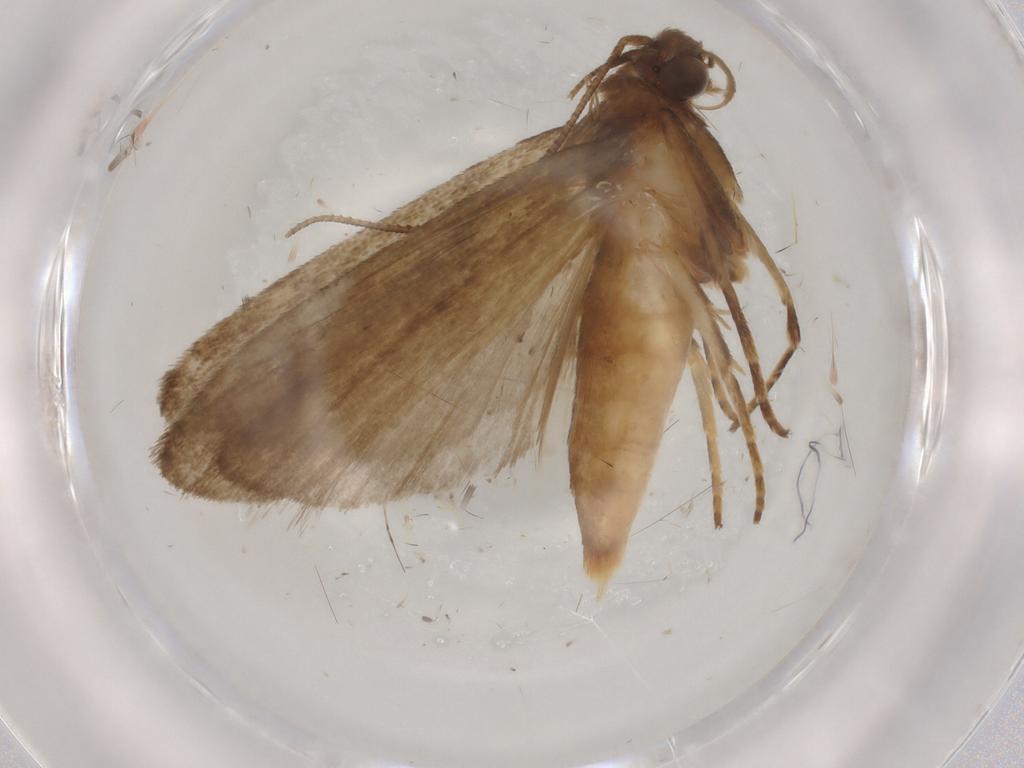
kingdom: Animalia
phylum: Arthropoda
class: Insecta
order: Lepidoptera
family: Noctuidae
